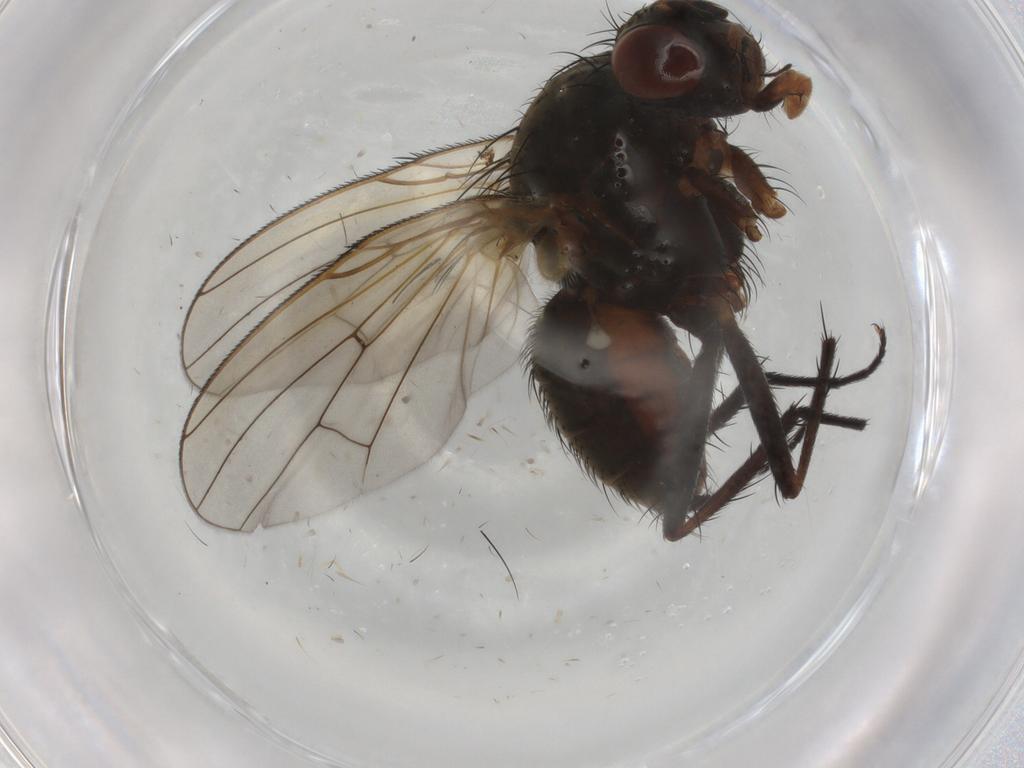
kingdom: Animalia
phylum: Arthropoda
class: Insecta
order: Diptera
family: Canacidae
